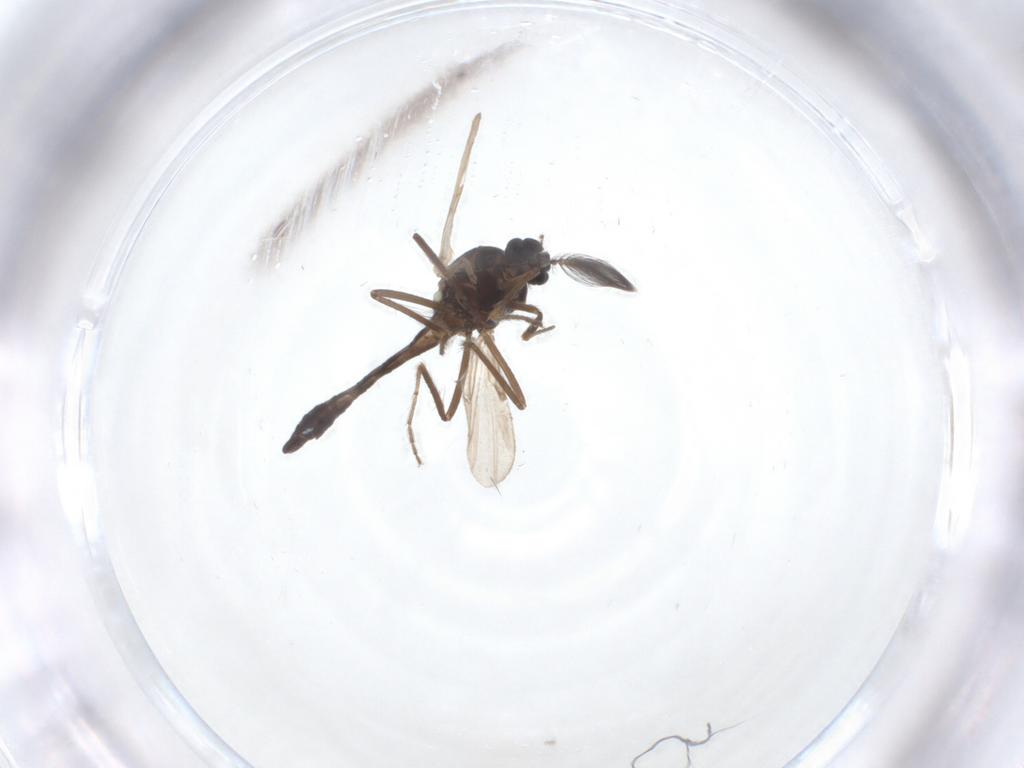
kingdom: Animalia
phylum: Arthropoda
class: Insecta
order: Diptera
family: Ceratopogonidae
